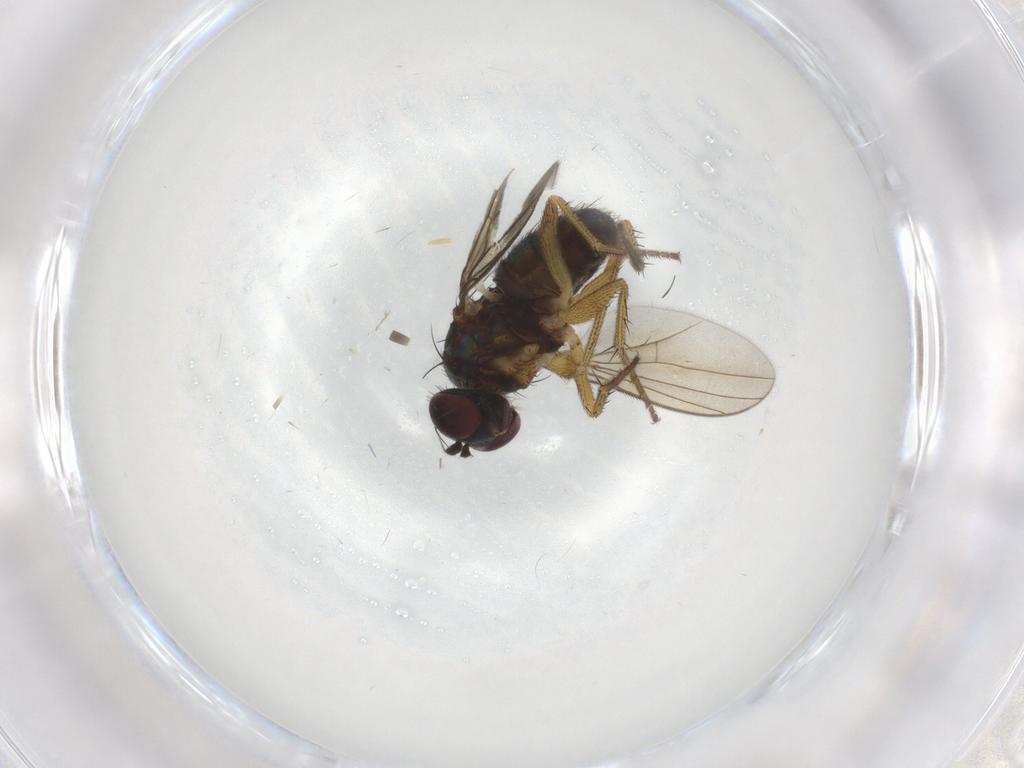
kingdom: Animalia
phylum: Arthropoda
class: Insecta
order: Diptera
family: Dolichopodidae
